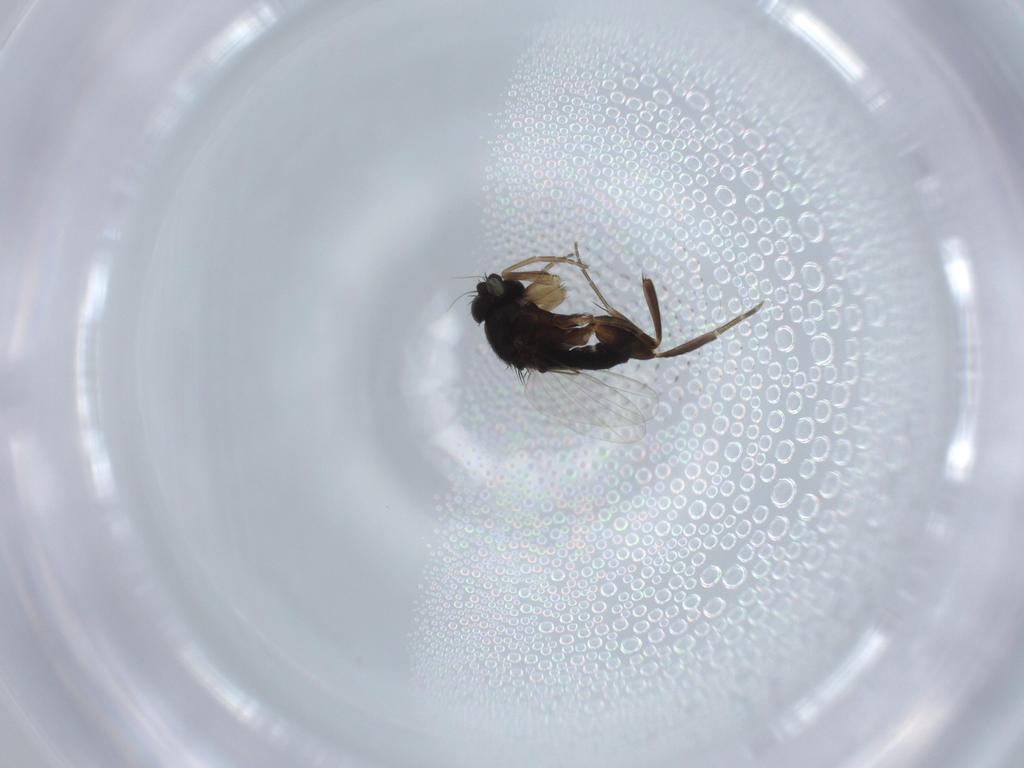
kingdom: Animalia
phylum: Arthropoda
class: Insecta
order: Diptera
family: Phoridae
